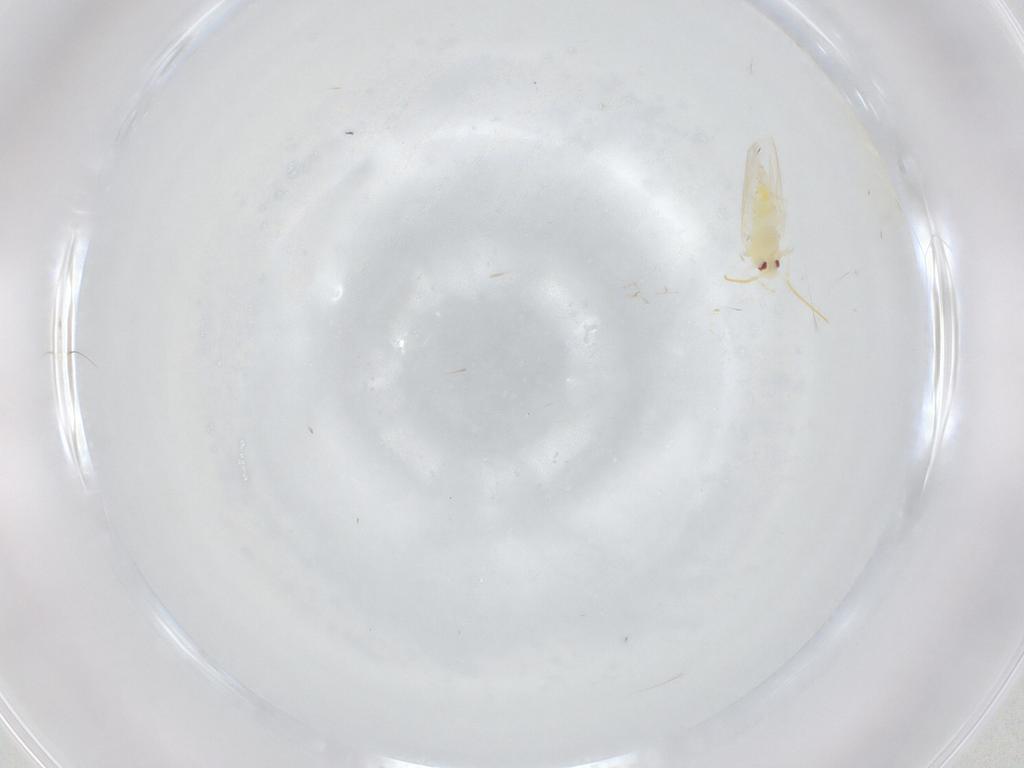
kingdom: Animalia
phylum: Arthropoda
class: Insecta
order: Hemiptera
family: Aleyrodidae
